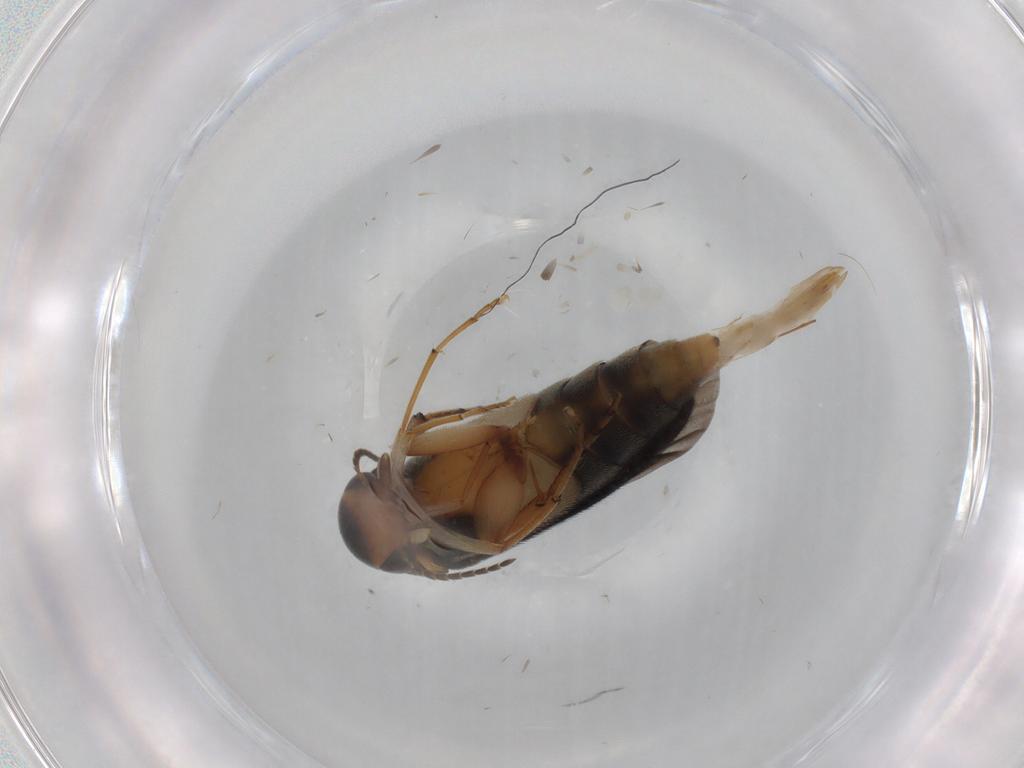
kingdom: Animalia
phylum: Arthropoda
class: Insecta
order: Coleoptera
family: Mordellidae
